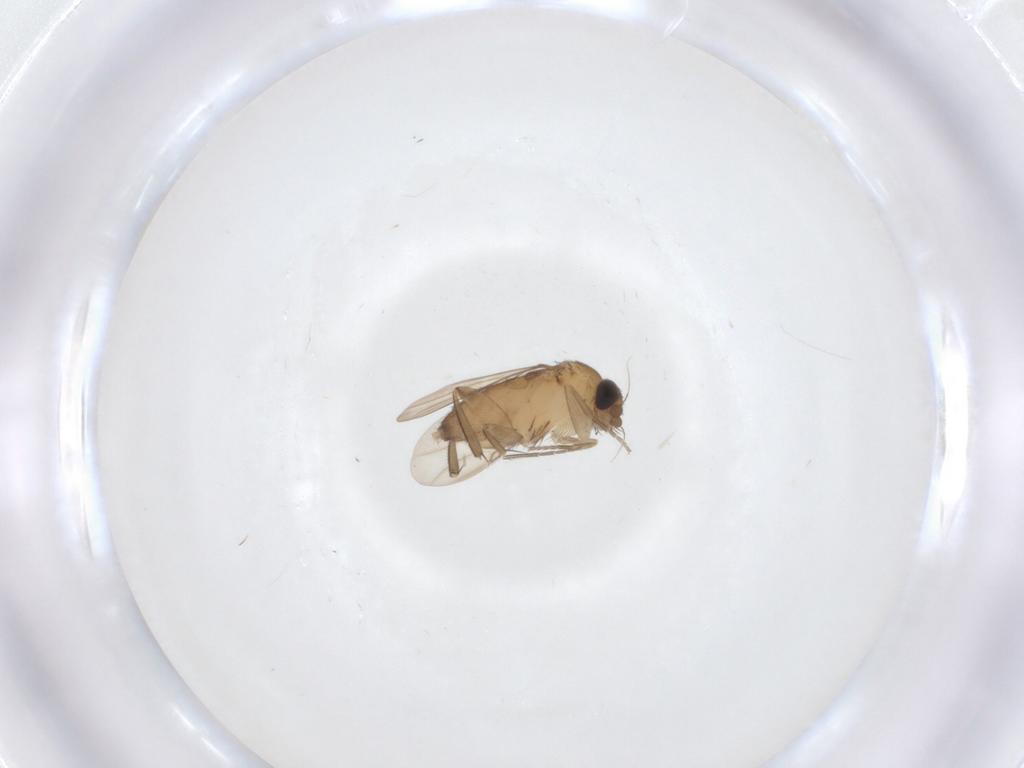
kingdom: Animalia
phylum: Arthropoda
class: Insecta
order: Diptera
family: Phoridae
